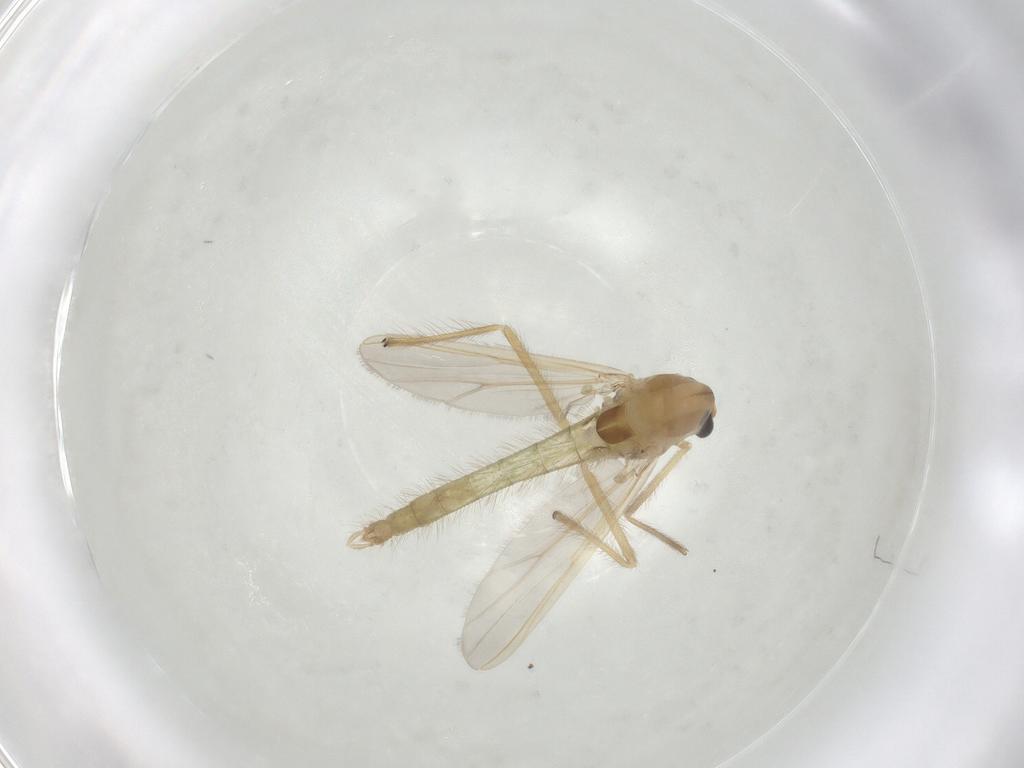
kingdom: Animalia
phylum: Arthropoda
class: Insecta
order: Diptera
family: Chironomidae
